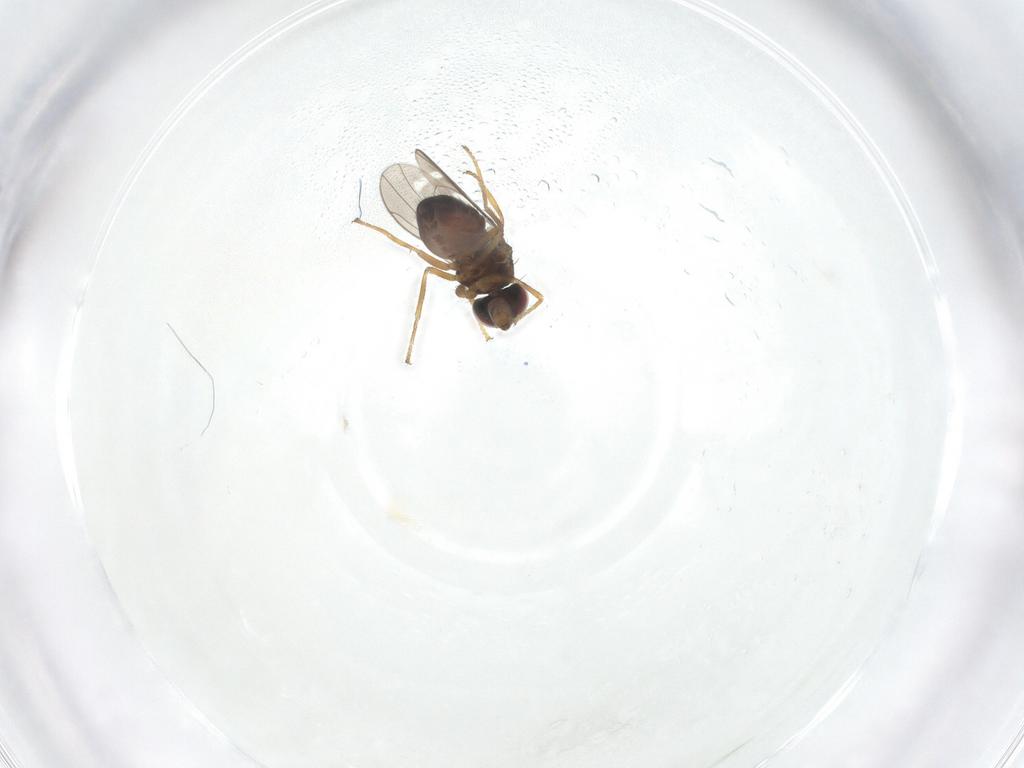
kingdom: Animalia
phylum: Arthropoda
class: Insecta
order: Diptera
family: Ephydridae
